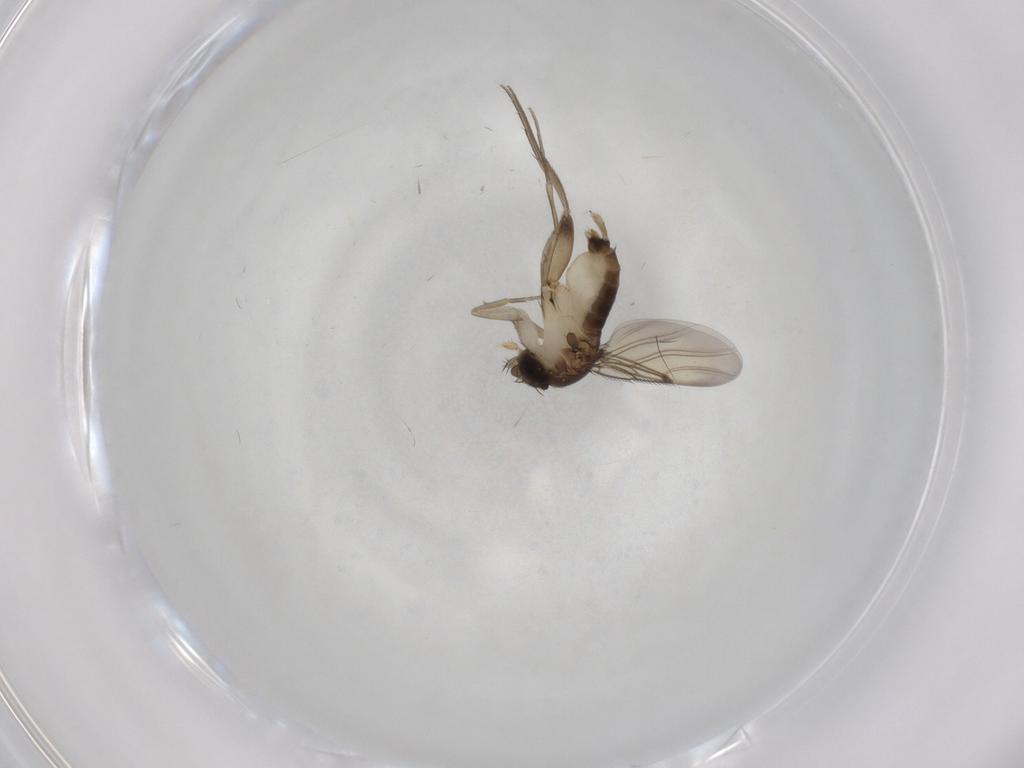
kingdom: Animalia
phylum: Arthropoda
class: Insecta
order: Diptera
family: Phoridae
